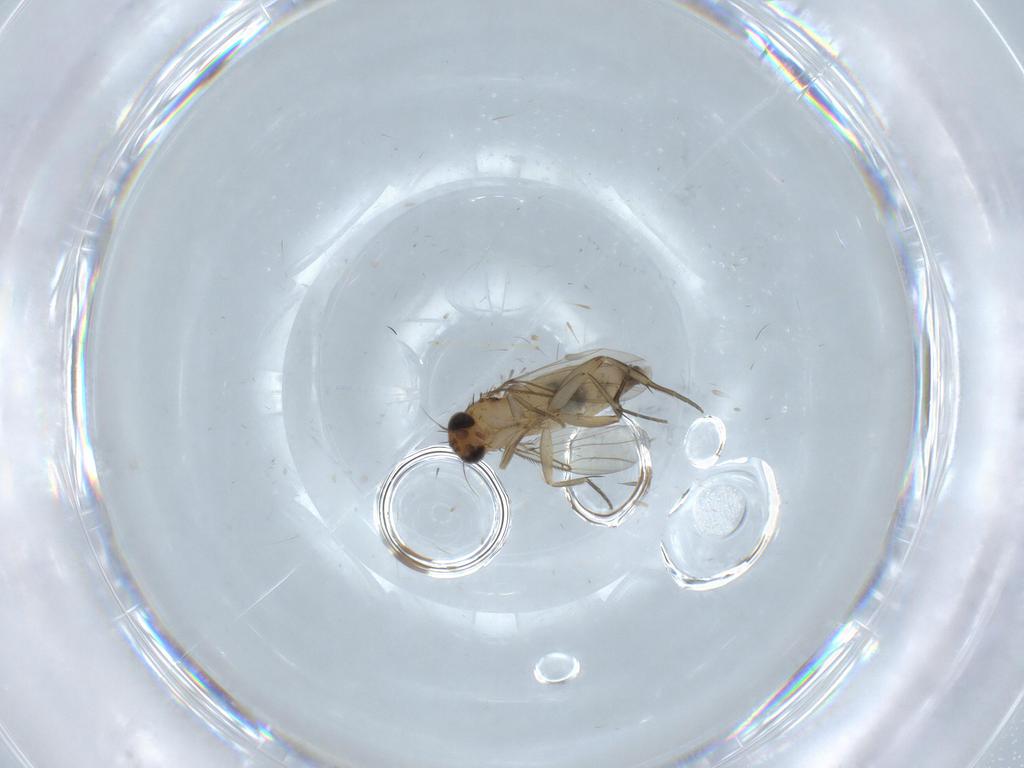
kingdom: Animalia
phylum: Arthropoda
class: Insecta
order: Diptera
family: Phoridae
